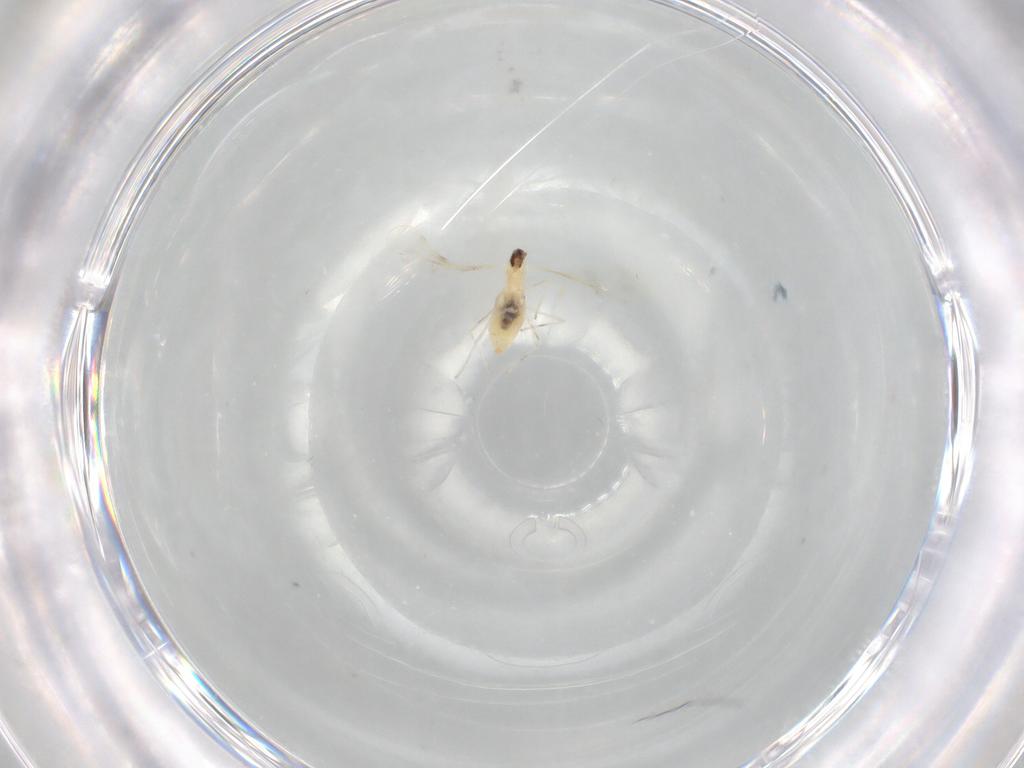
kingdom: Animalia
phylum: Arthropoda
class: Insecta
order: Diptera
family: Cecidomyiidae
